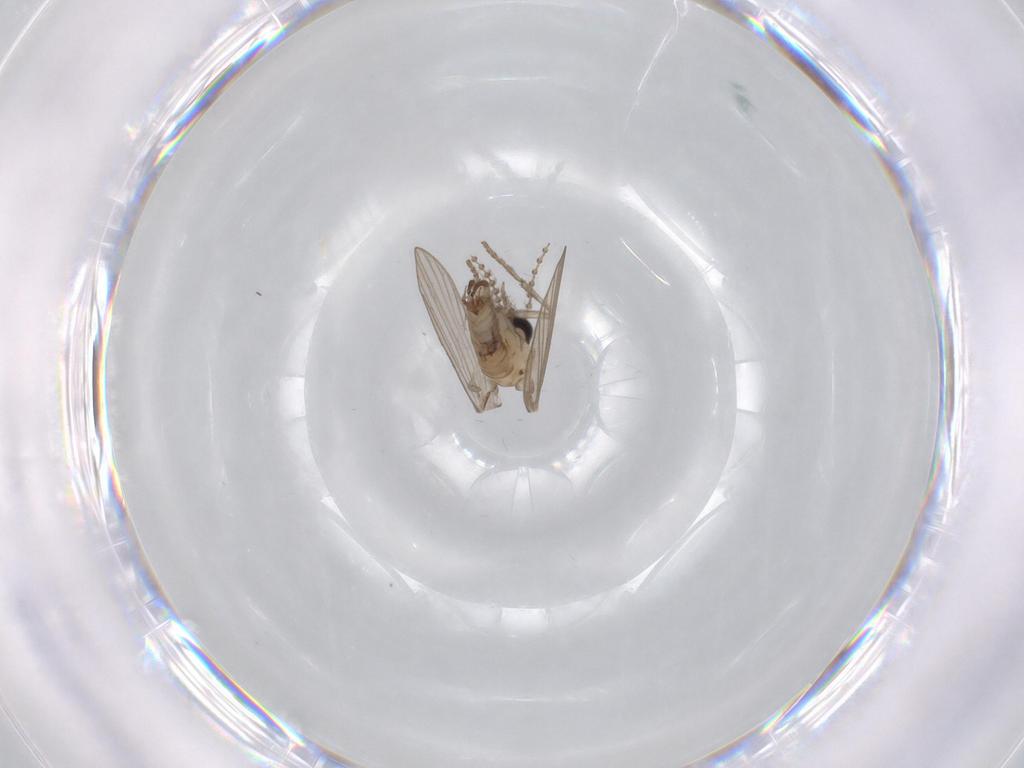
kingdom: Animalia
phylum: Arthropoda
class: Insecta
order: Diptera
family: Psychodidae
